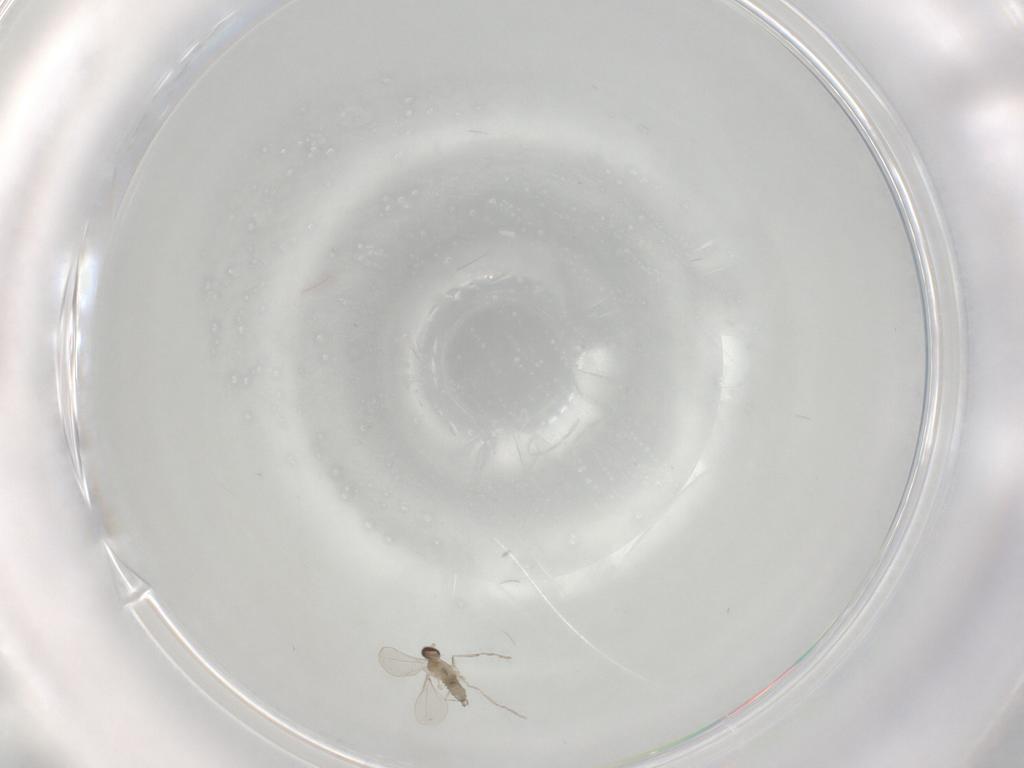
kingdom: Animalia
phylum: Arthropoda
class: Insecta
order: Diptera
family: Cecidomyiidae
